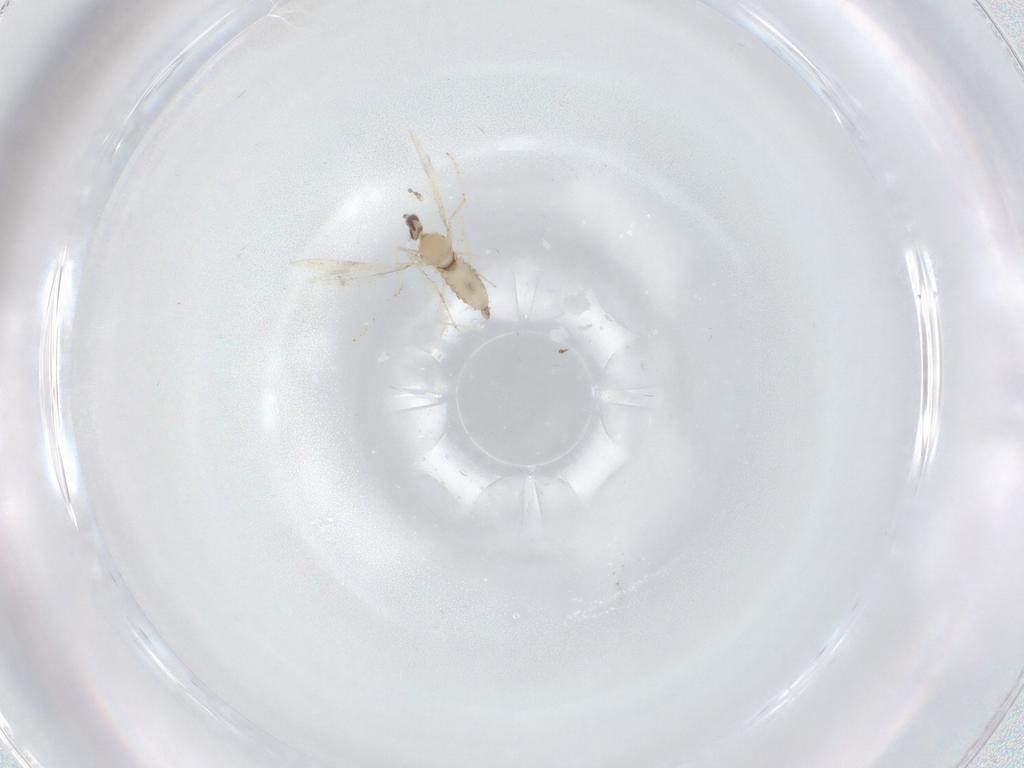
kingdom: Animalia
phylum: Arthropoda
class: Insecta
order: Diptera
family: Cecidomyiidae
